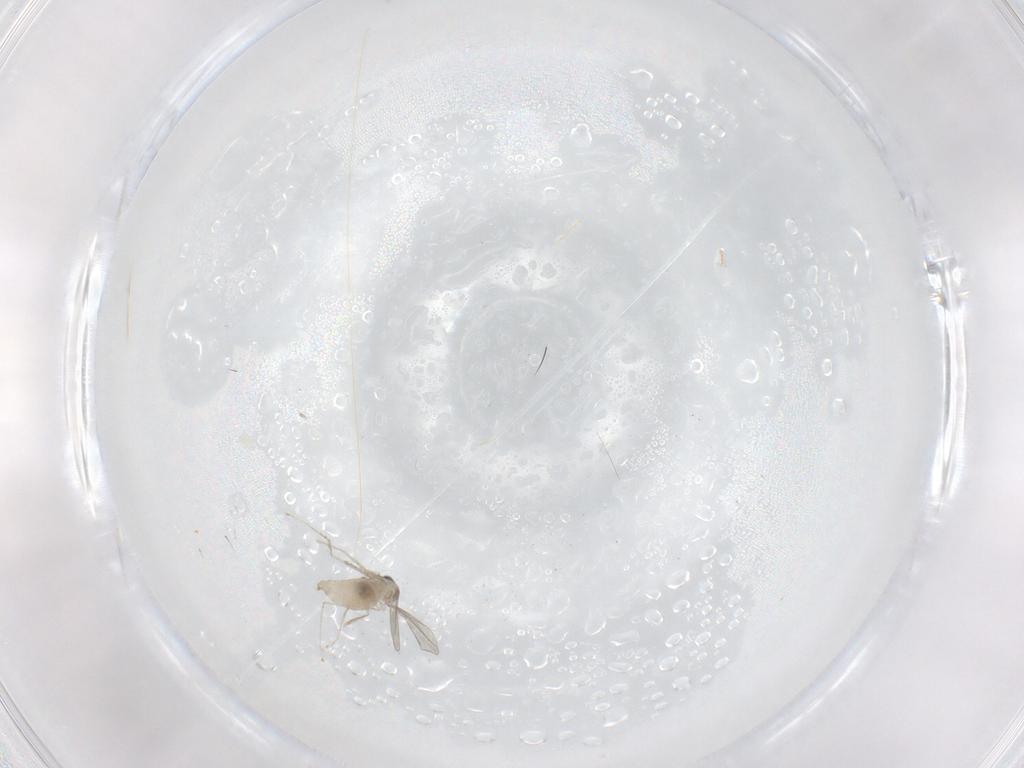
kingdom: Animalia
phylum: Arthropoda
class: Insecta
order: Diptera
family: Cecidomyiidae
